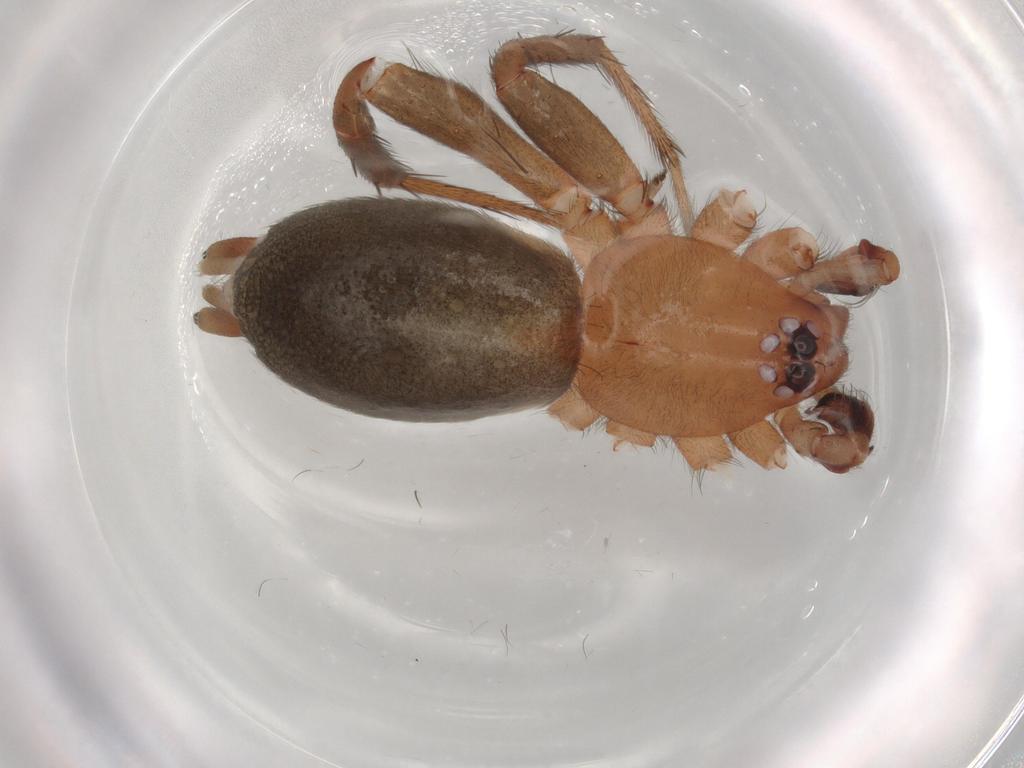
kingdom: Animalia
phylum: Arthropoda
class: Arachnida
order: Araneae
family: Gnaphosidae
